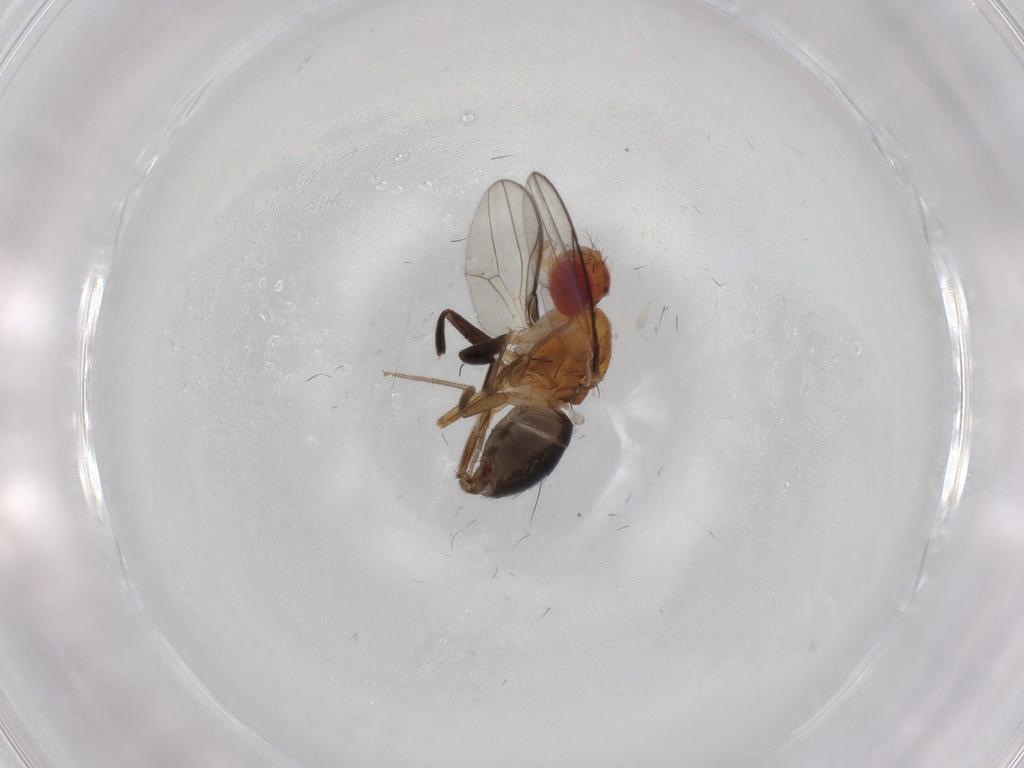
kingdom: Animalia
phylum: Arthropoda
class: Insecta
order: Diptera
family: Drosophilidae
